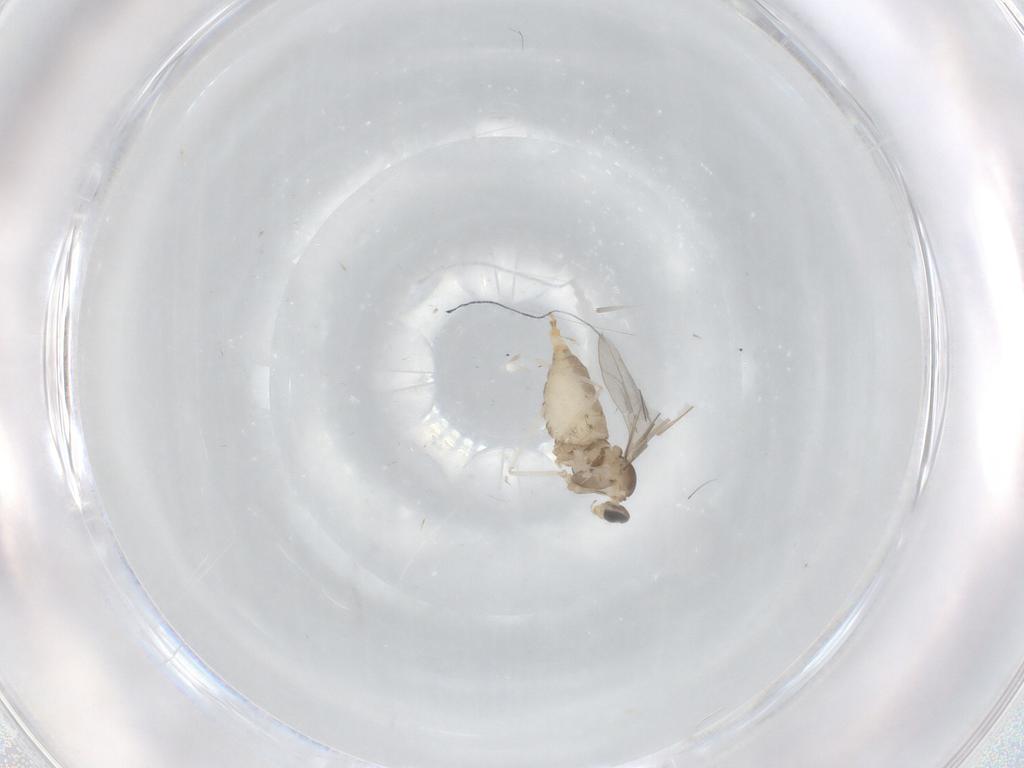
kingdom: Animalia
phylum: Arthropoda
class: Insecta
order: Diptera
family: Cecidomyiidae
